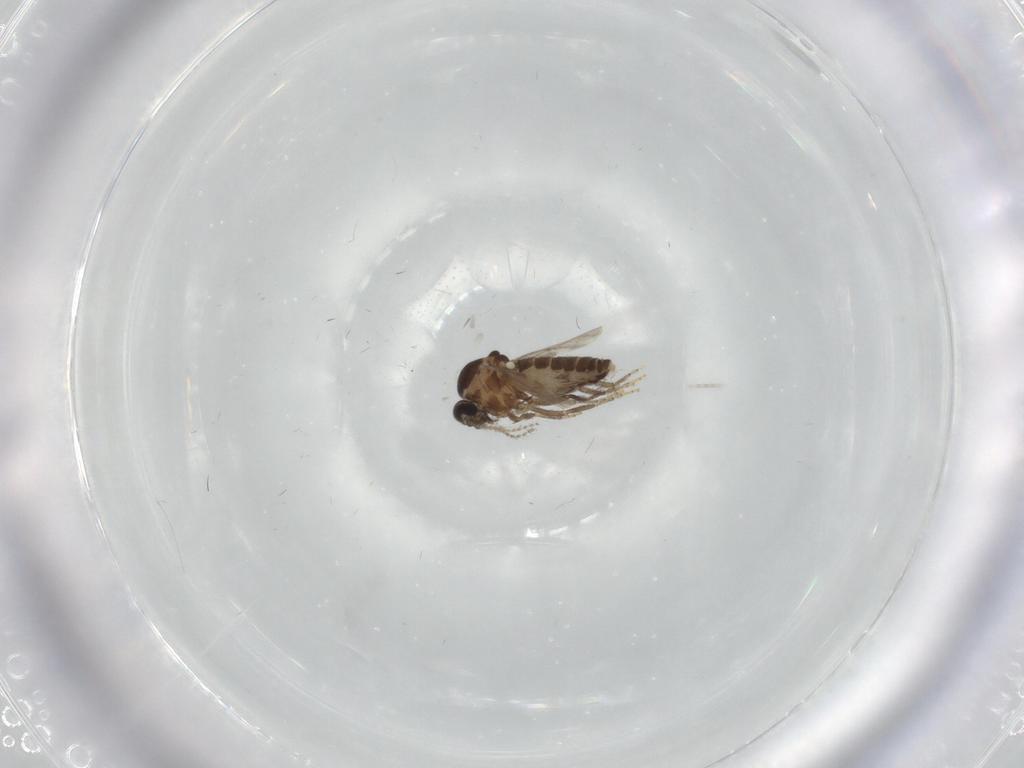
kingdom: Animalia
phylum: Arthropoda
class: Insecta
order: Diptera
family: Ceratopogonidae
